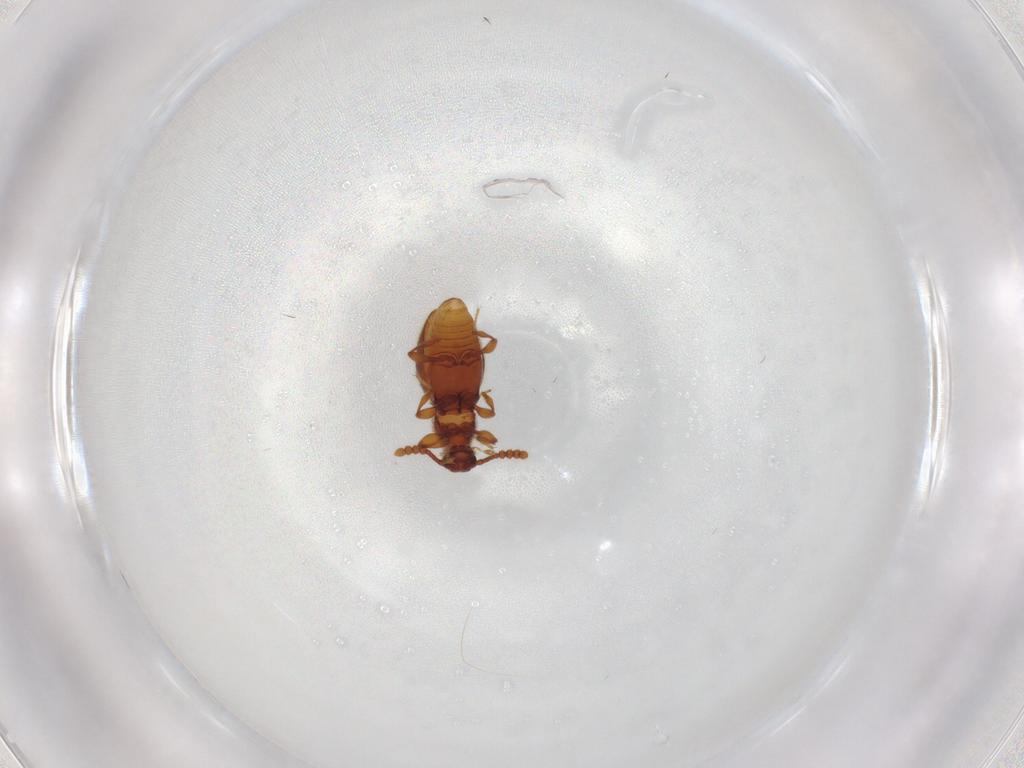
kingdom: Animalia
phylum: Arthropoda
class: Insecta
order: Coleoptera
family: Staphylinidae
